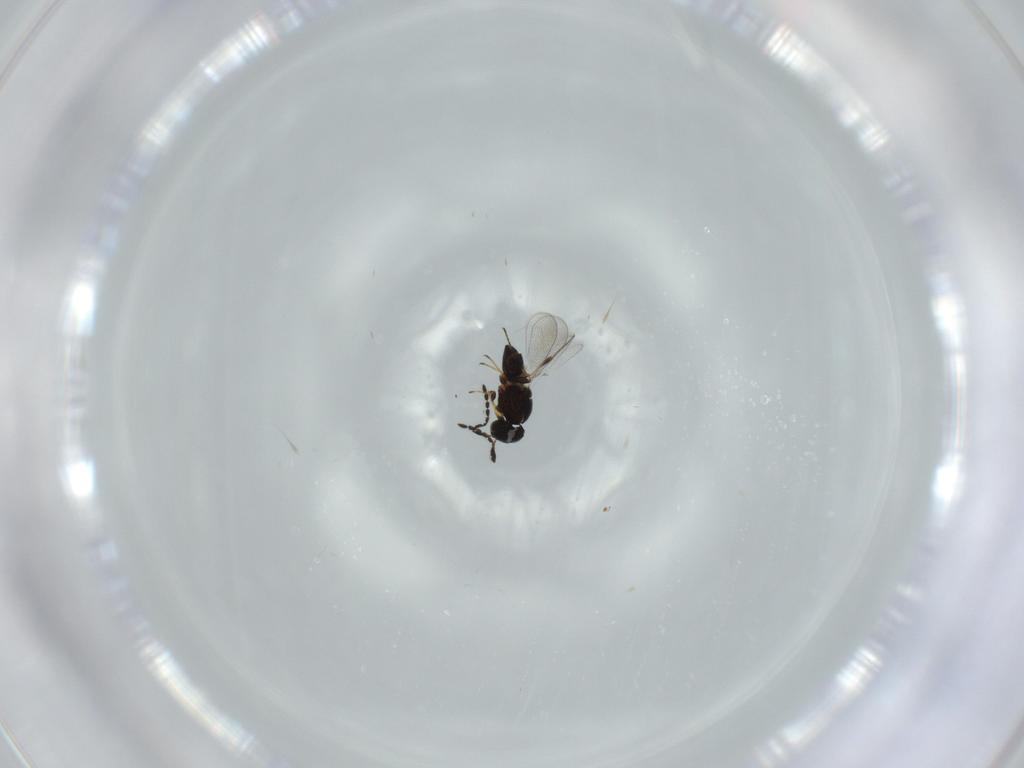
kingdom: Animalia
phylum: Arthropoda
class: Insecta
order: Hymenoptera
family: Platygastridae
